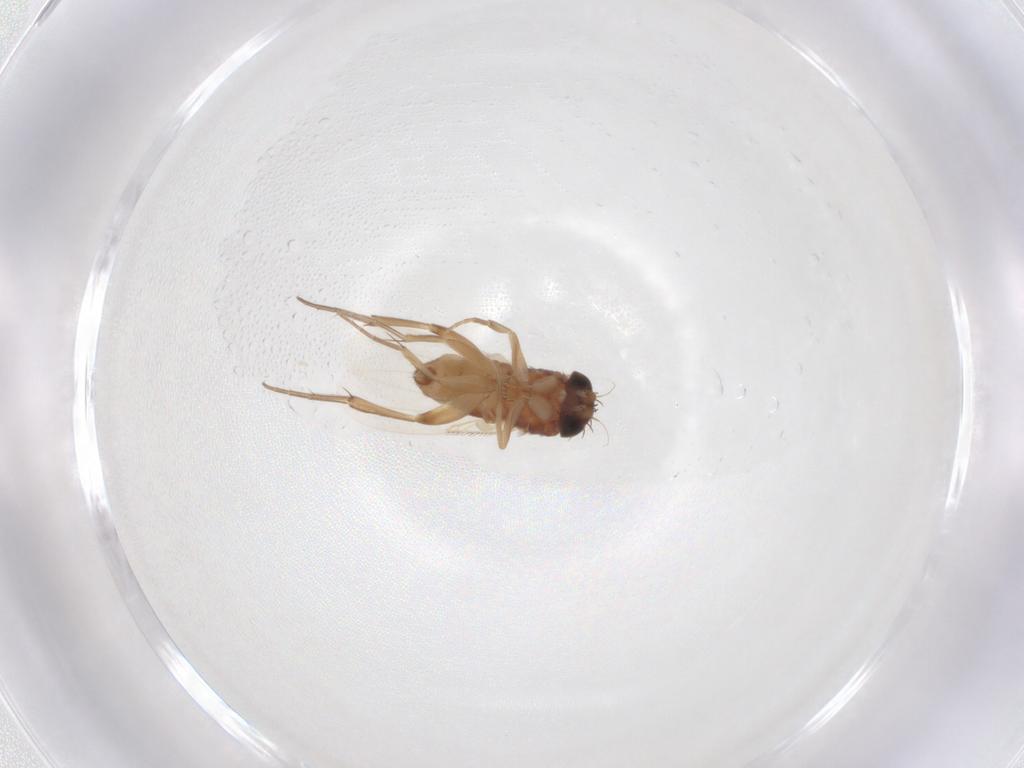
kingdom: Animalia
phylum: Arthropoda
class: Insecta
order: Diptera
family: Phoridae
